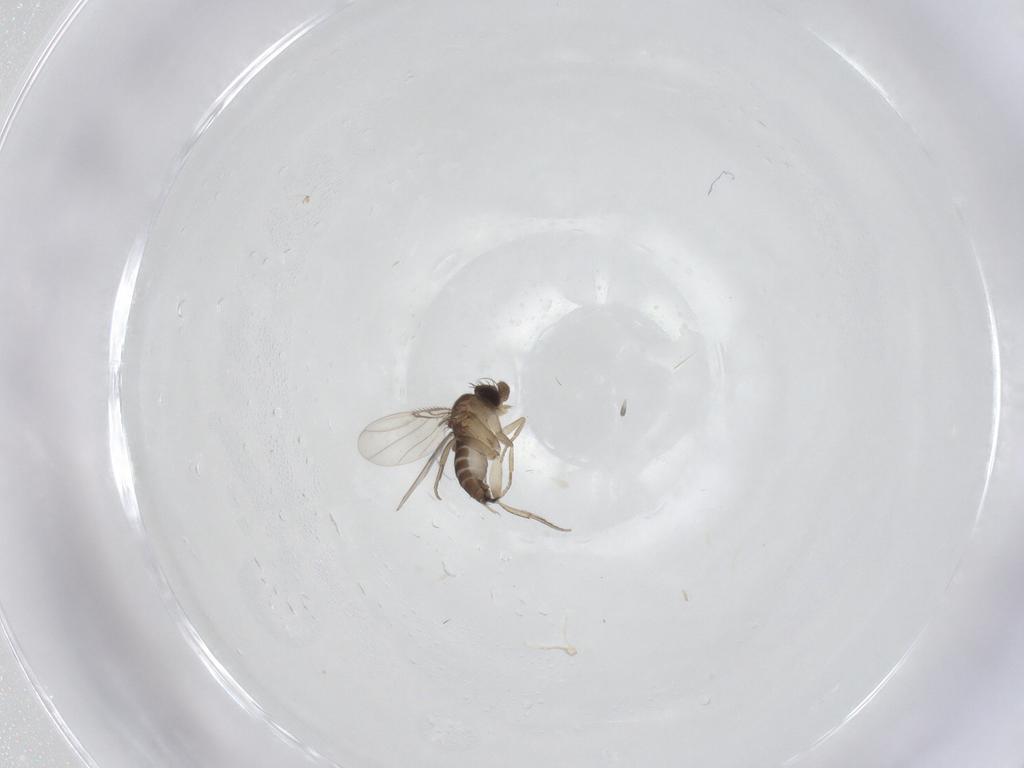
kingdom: Animalia
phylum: Arthropoda
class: Insecta
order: Diptera
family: Phoridae
